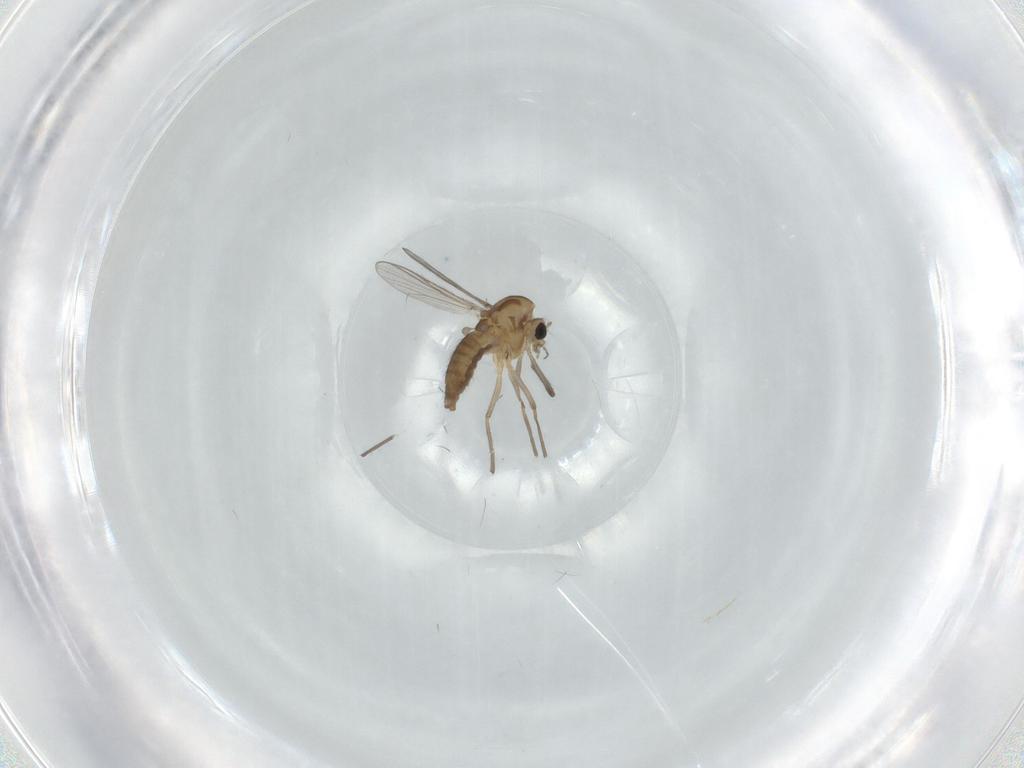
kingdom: Animalia
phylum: Arthropoda
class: Insecta
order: Diptera
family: Chironomidae
